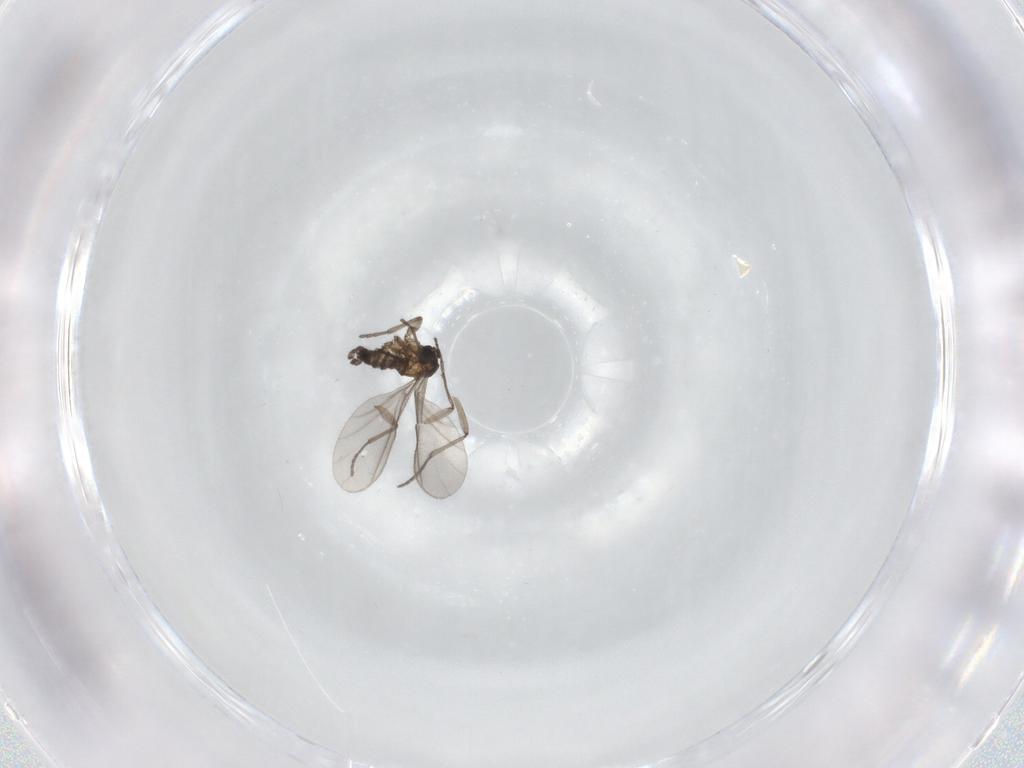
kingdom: Animalia
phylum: Arthropoda
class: Insecta
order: Diptera
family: Sciaridae
